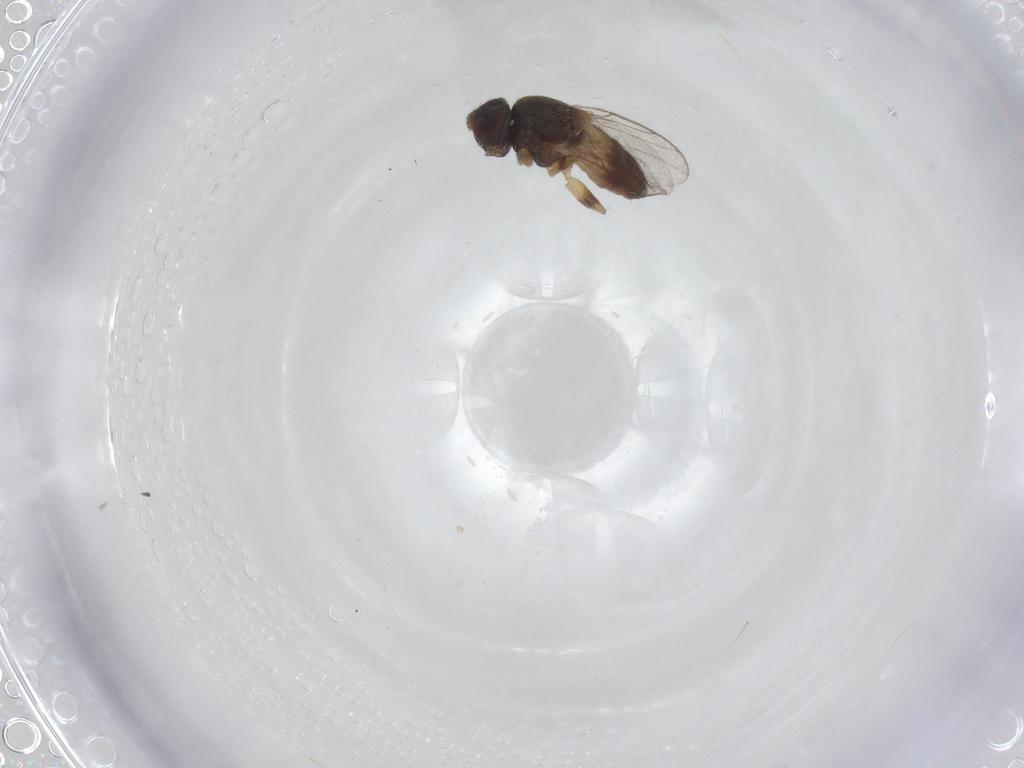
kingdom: Animalia
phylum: Arthropoda
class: Insecta
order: Diptera
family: Chloropidae
